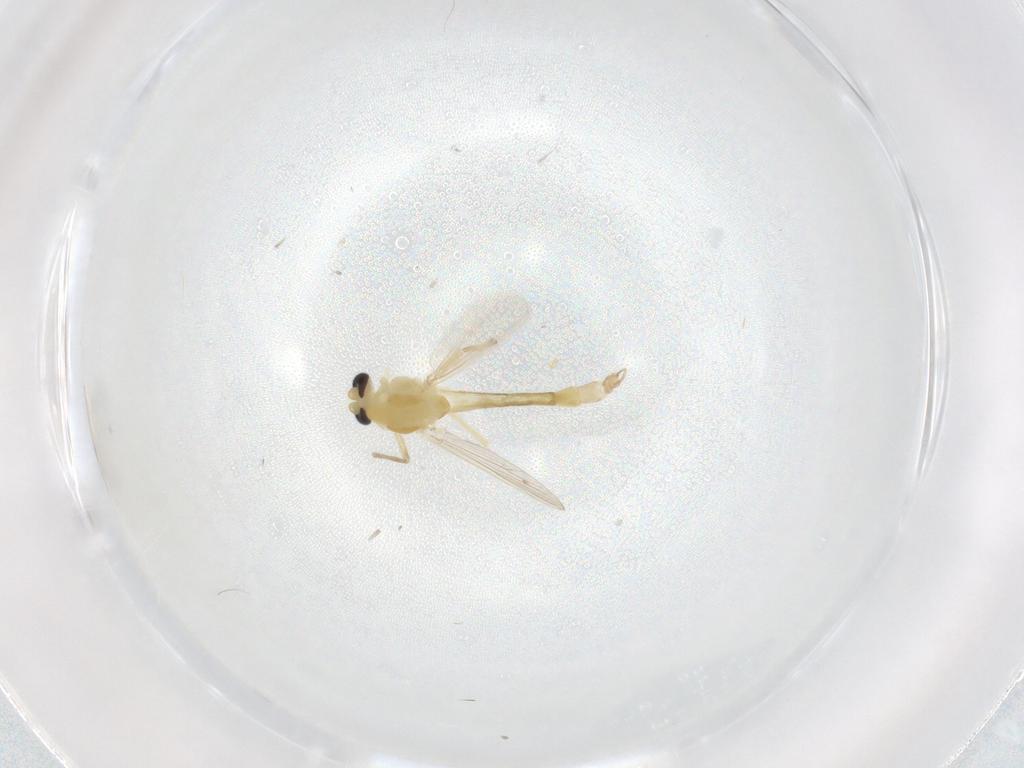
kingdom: Animalia
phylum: Arthropoda
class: Insecta
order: Diptera
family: Chironomidae
